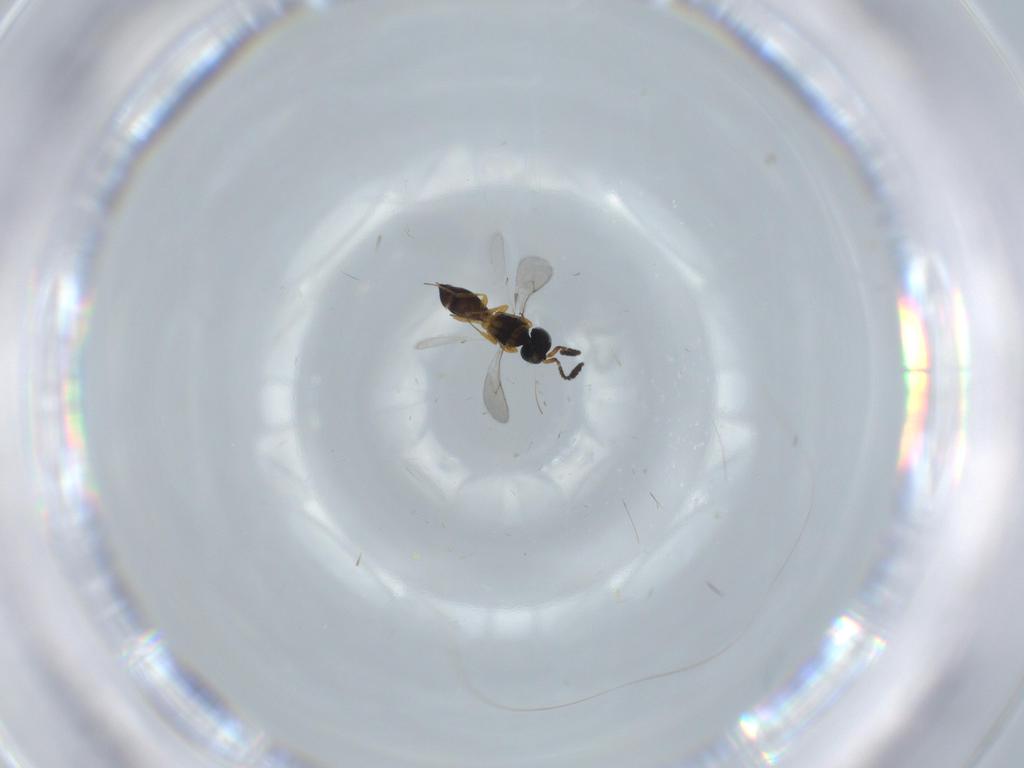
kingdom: Animalia
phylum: Arthropoda
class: Insecta
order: Hymenoptera
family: Scelionidae
